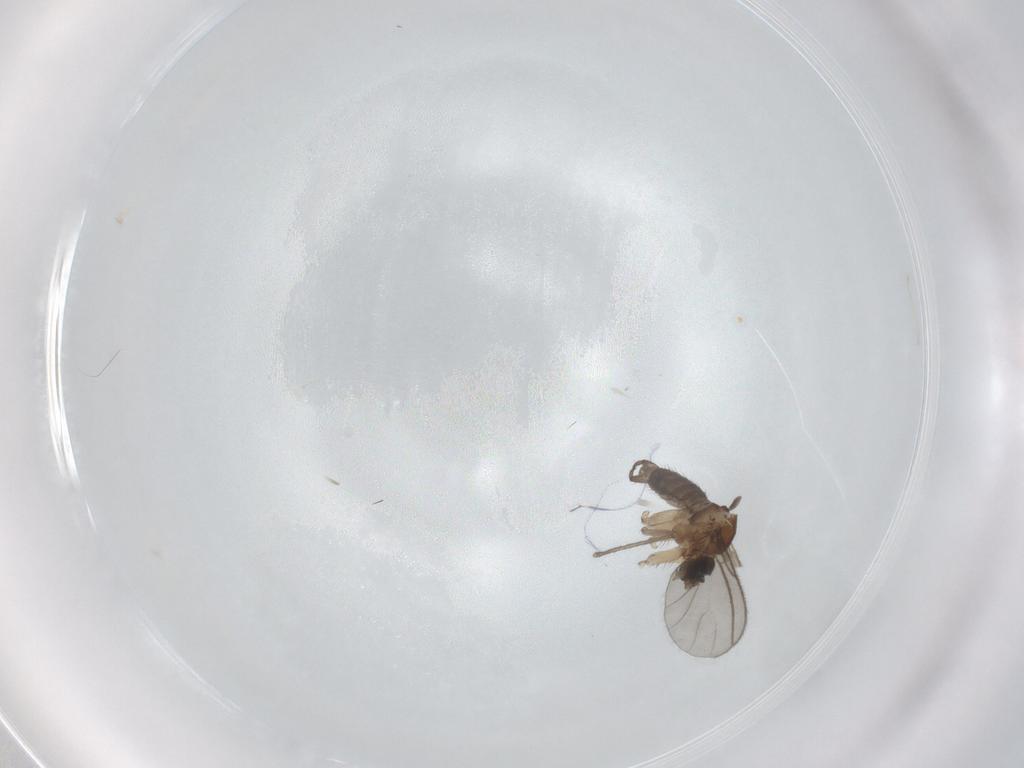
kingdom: Animalia
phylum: Arthropoda
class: Insecta
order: Diptera
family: Sciaridae
